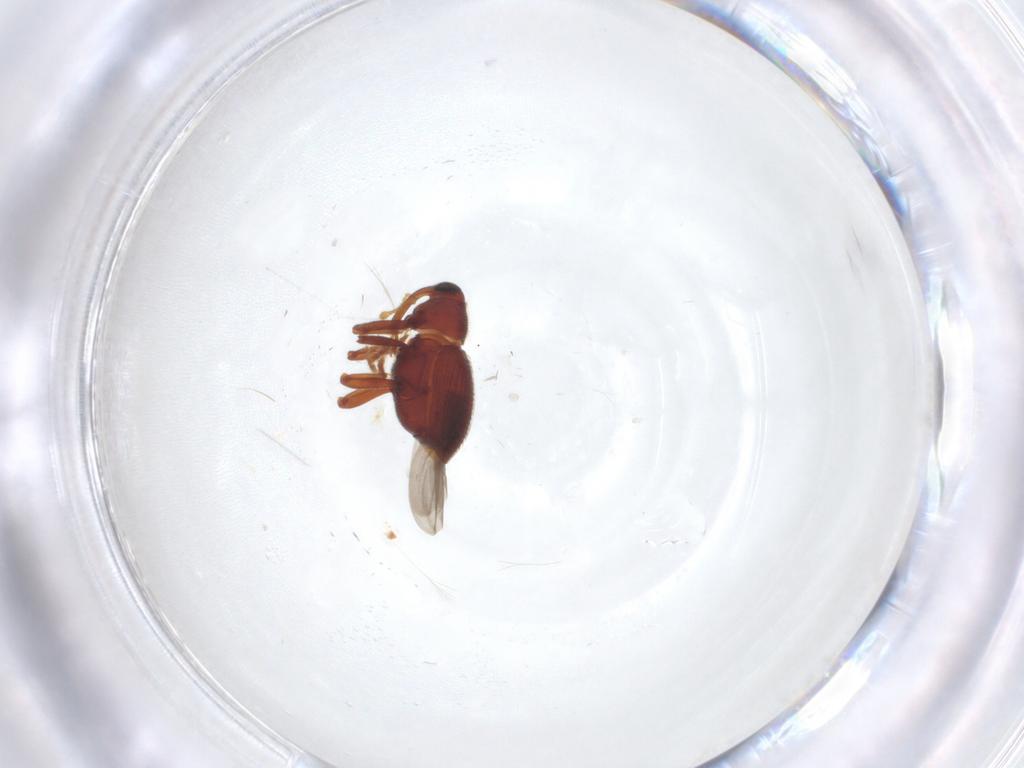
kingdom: Animalia
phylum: Arthropoda
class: Insecta
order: Coleoptera
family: Curculionidae
